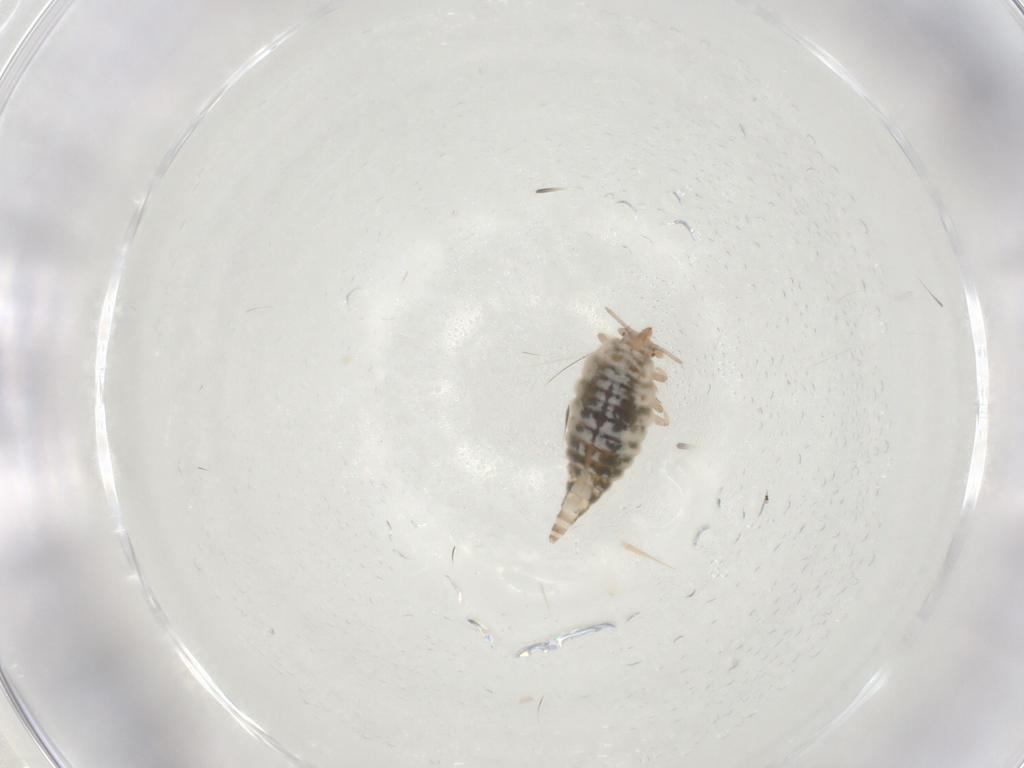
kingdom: Animalia
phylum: Arthropoda
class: Insecta
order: Neuroptera
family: Coniopterygidae
